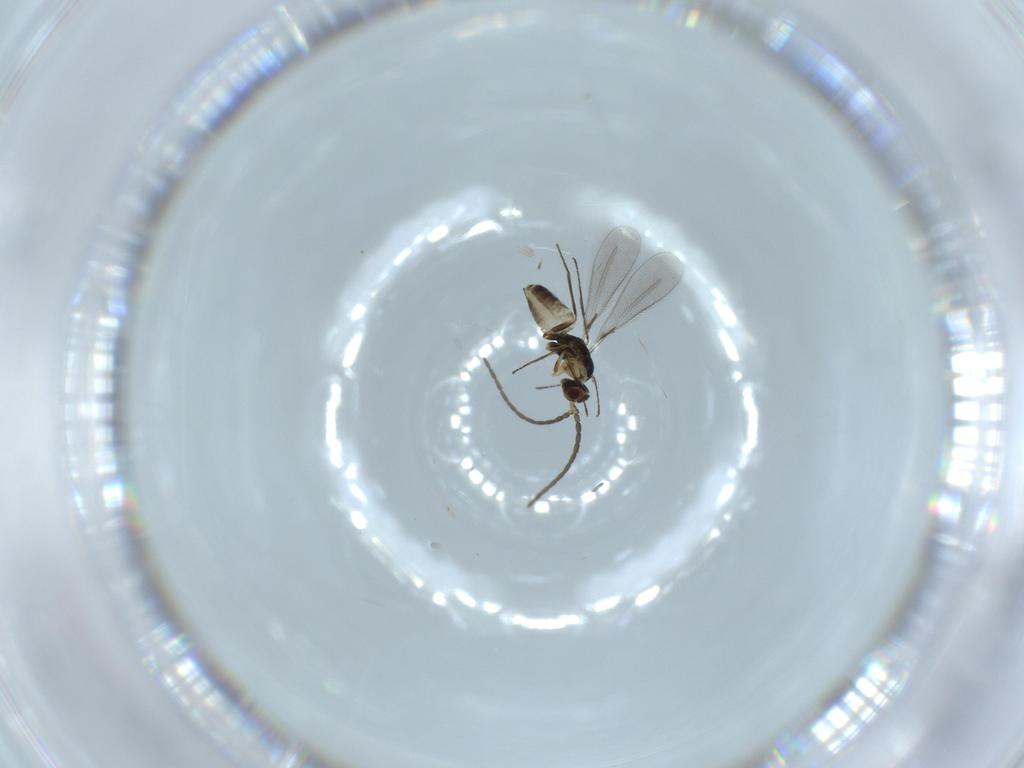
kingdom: Animalia
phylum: Arthropoda
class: Insecta
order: Hymenoptera
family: Mymaridae
